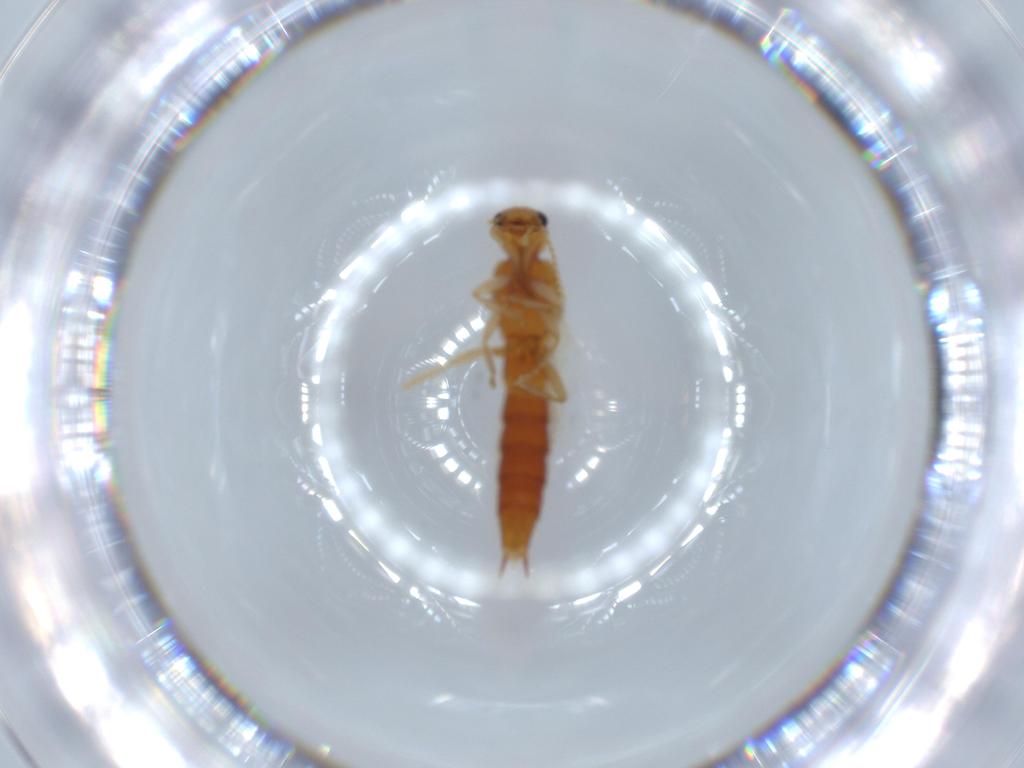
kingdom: Animalia
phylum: Arthropoda
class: Insecta
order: Coleoptera
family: Staphylinidae
